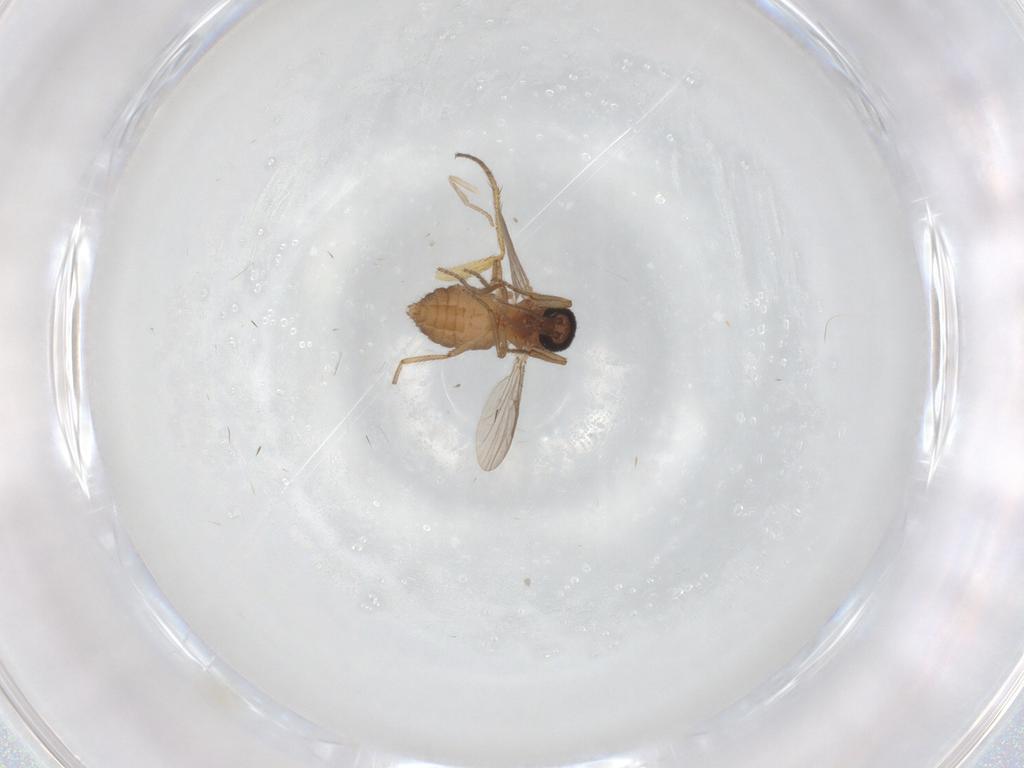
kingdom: Animalia
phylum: Arthropoda
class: Insecta
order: Diptera
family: Ceratopogonidae
